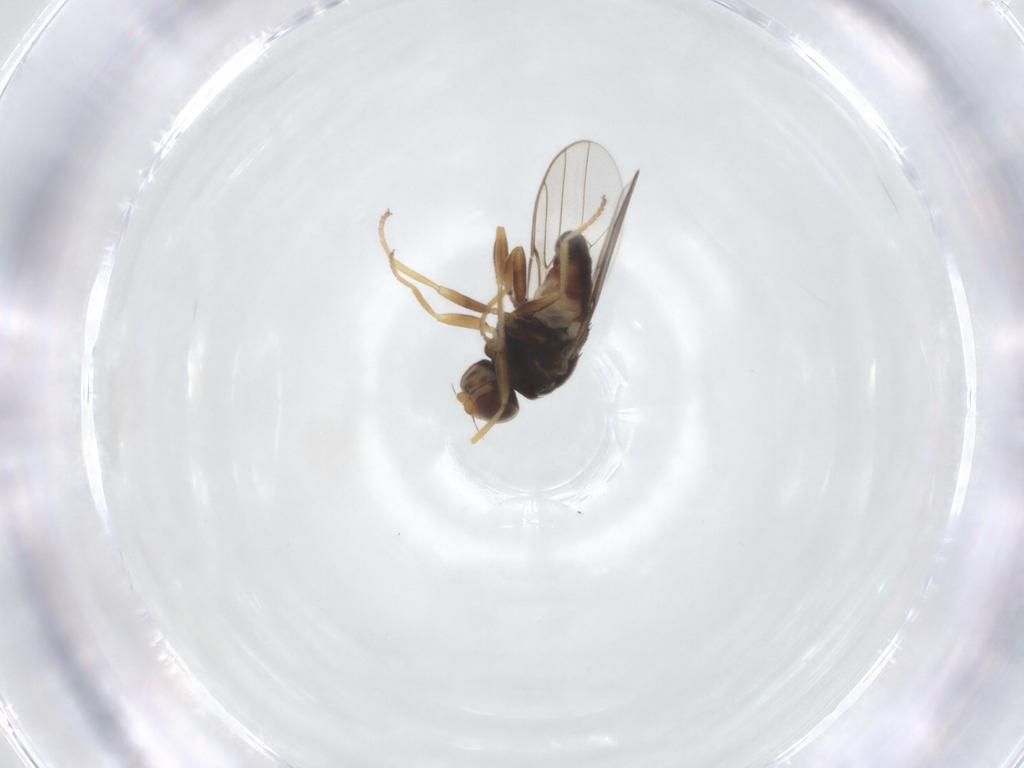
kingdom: Animalia
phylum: Arthropoda
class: Insecta
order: Diptera
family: Chloropidae
